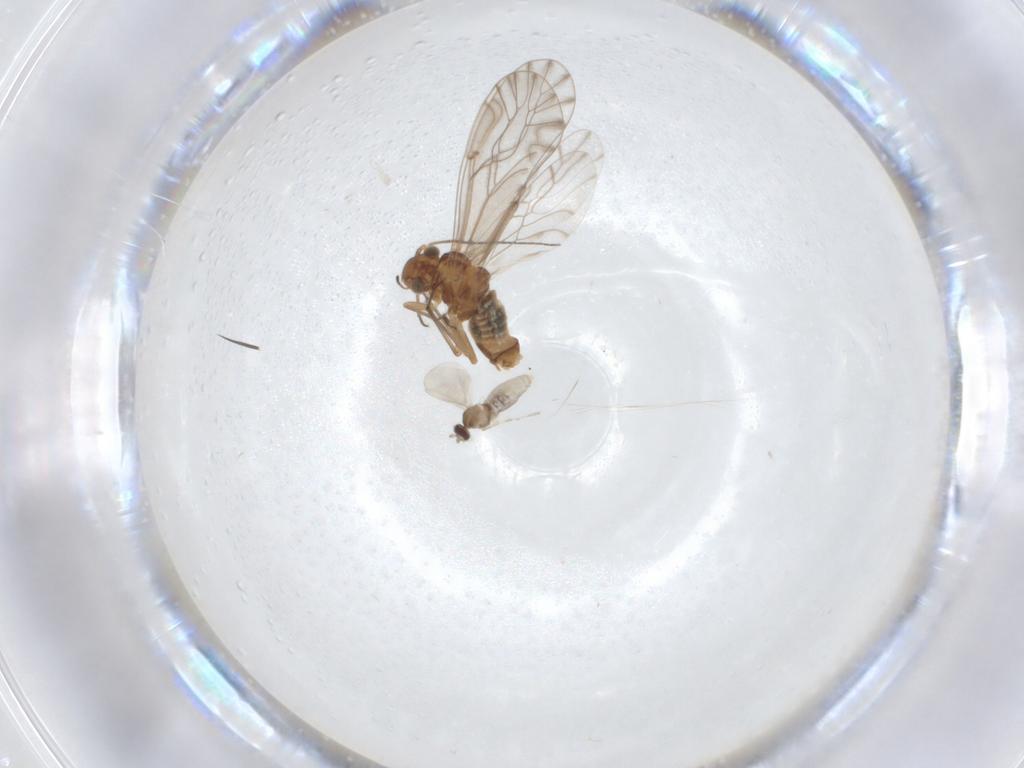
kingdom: Animalia
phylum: Arthropoda
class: Insecta
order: Psocodea
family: Lachesillidae
